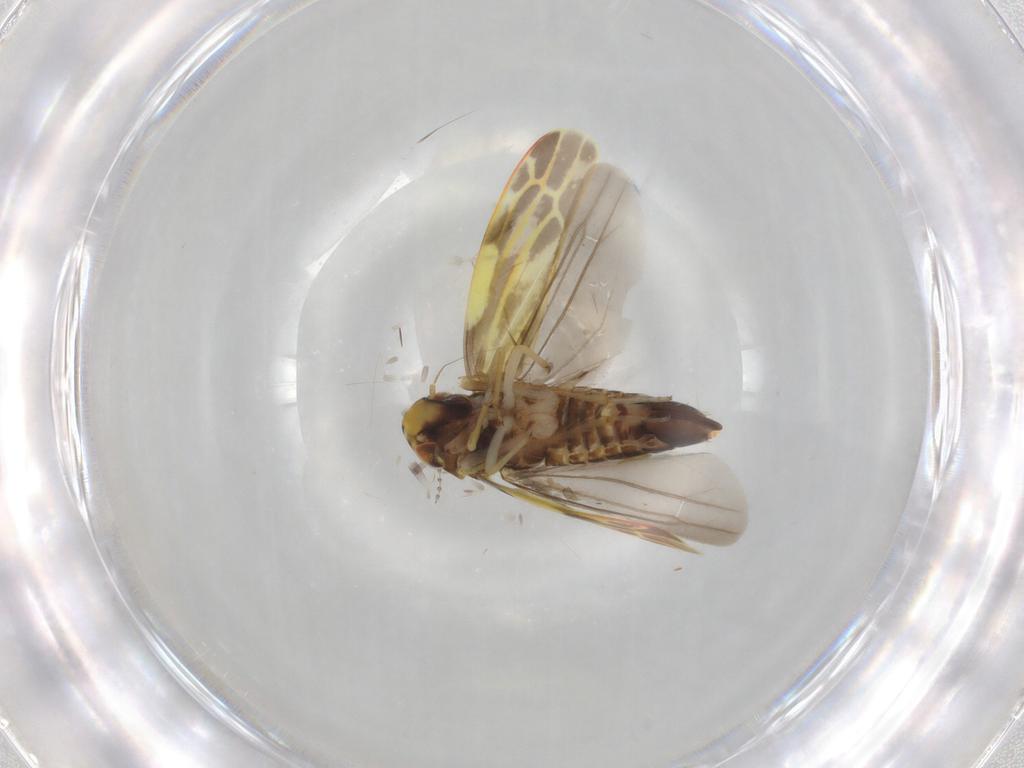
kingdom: Animalia
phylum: Arthropoda
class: Insecta
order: Hemiptera
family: Cicadellidae
